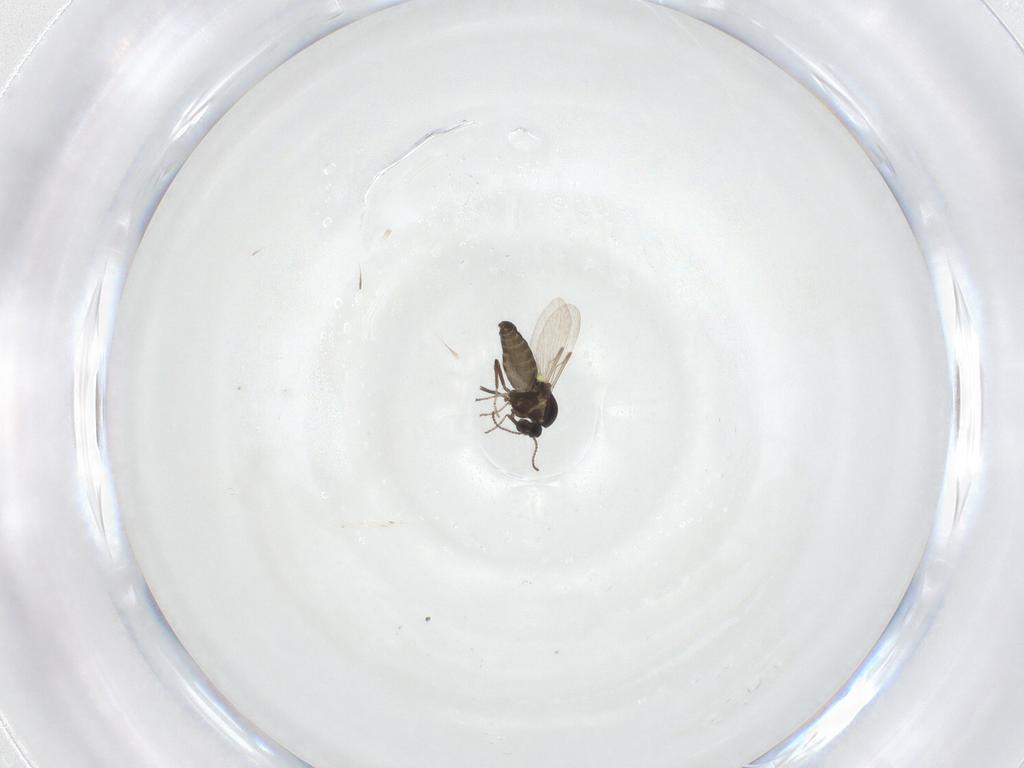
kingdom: Animalia
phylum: Arthropoda
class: Insecta
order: Diptera
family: Ceratopogonidae
